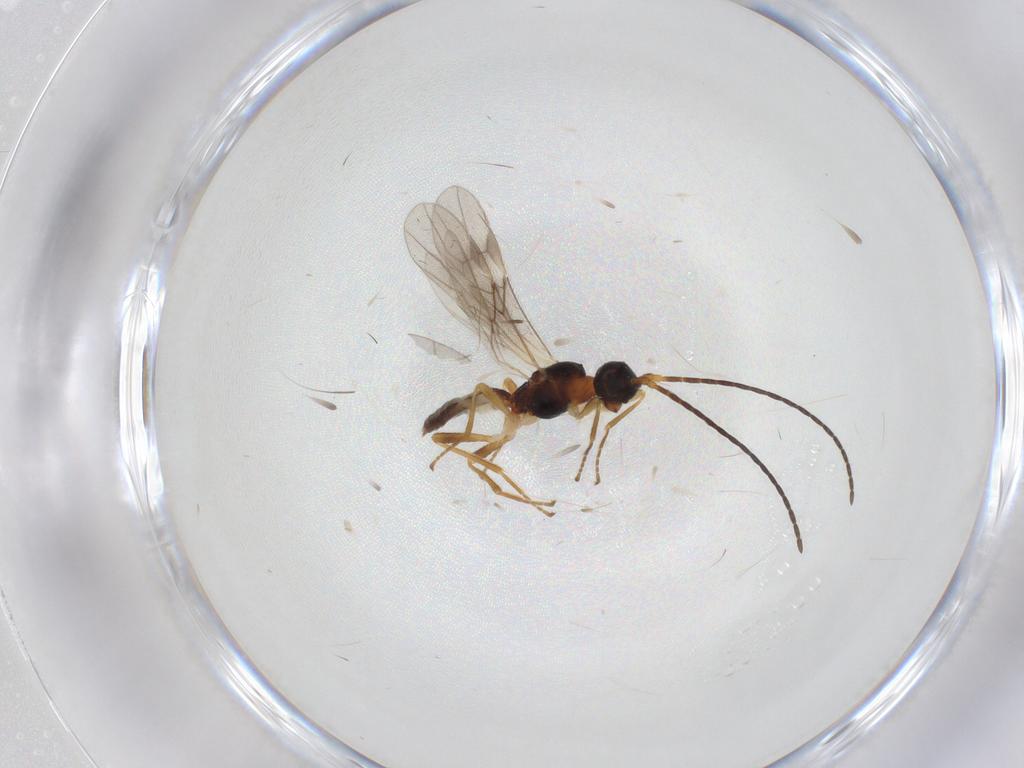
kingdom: Animalia
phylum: Arthropoda
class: Insecta
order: Hymenoptera
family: Braconidae
